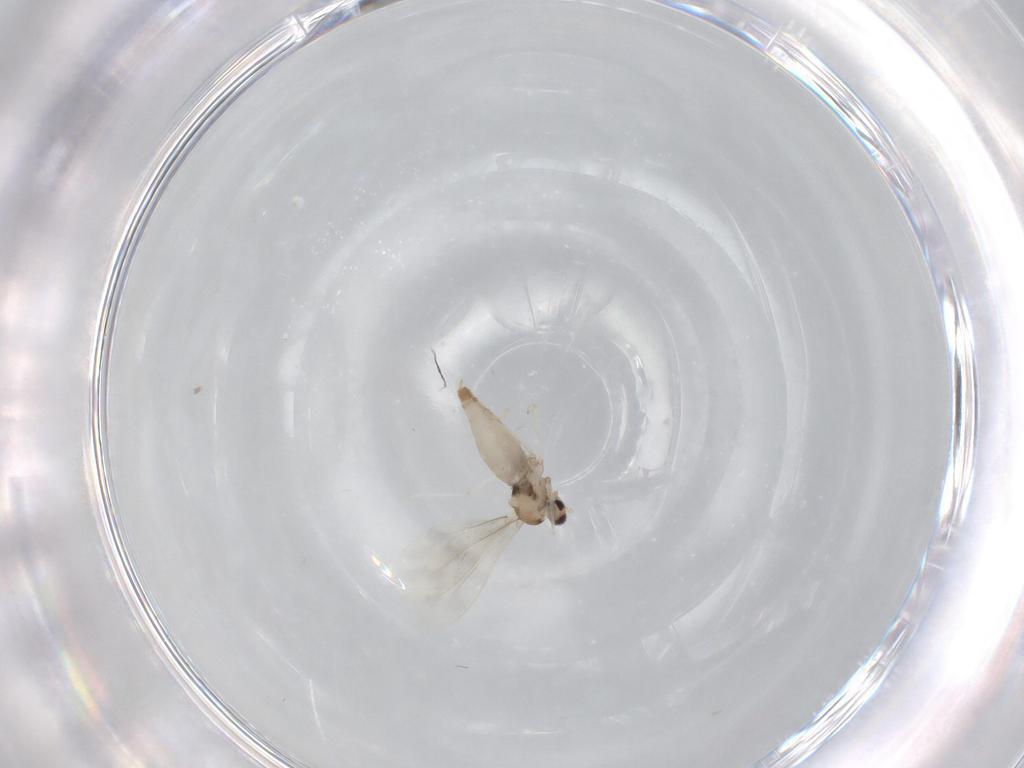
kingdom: Animalia
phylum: Arthropoda
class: Insecta
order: Diptera
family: Cecidomyiidae
